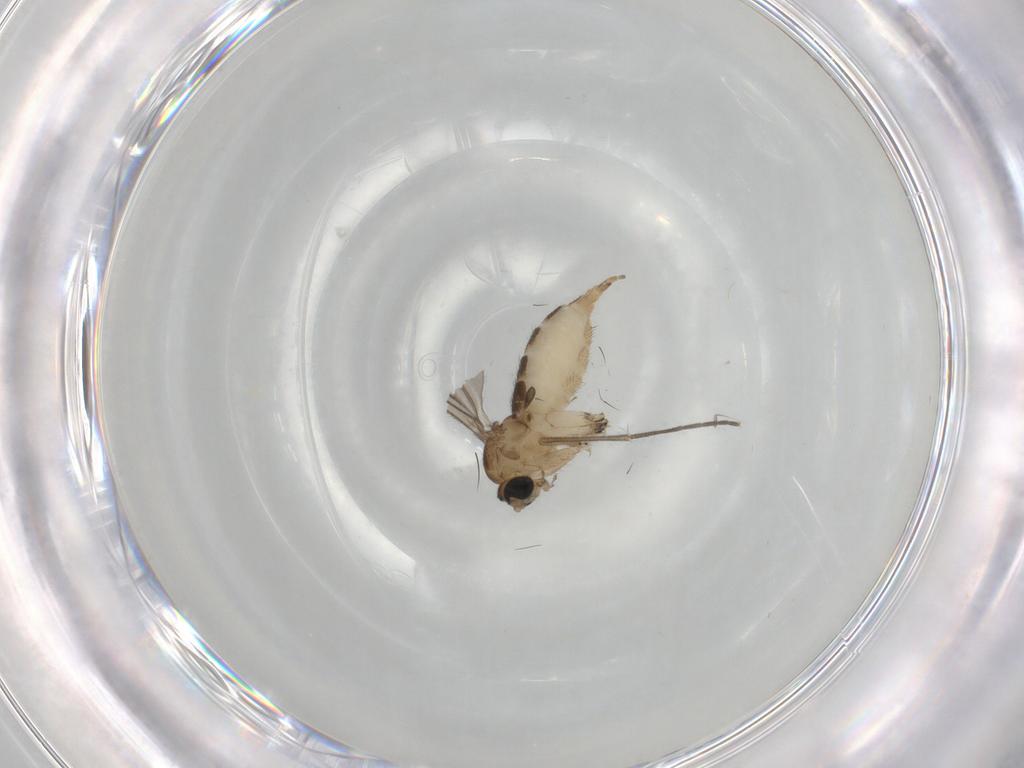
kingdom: Animalia
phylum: Arthropoda
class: Insecta
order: Diptera
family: Sciaridae
